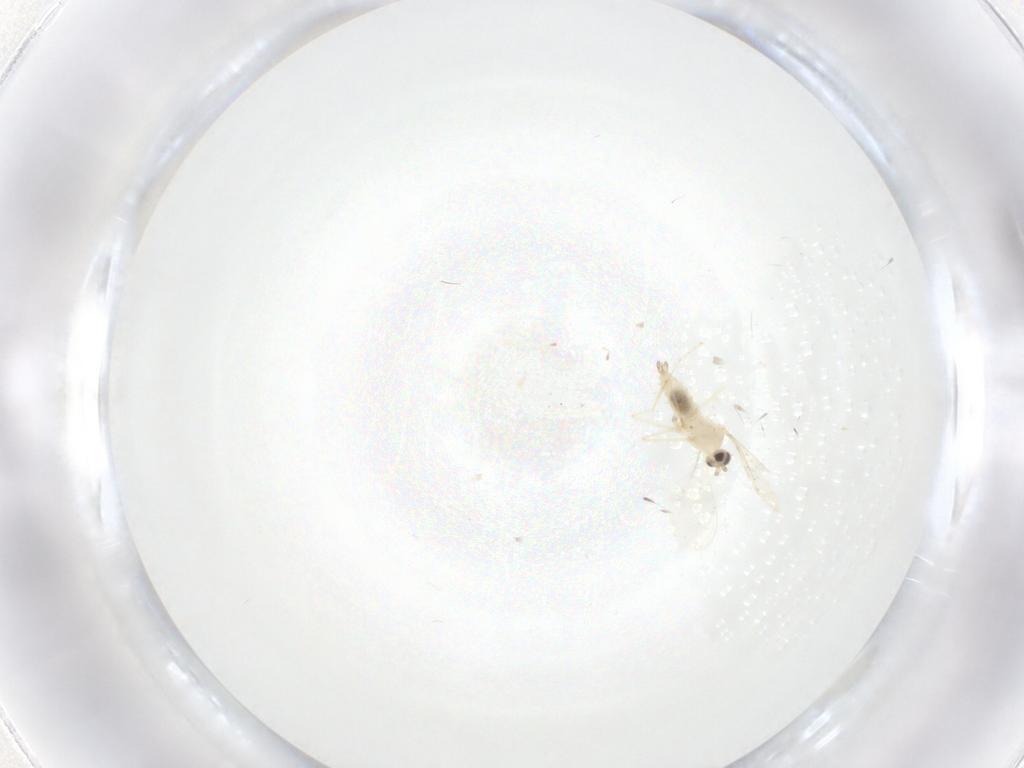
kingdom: Animalia
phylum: Arthropoda
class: Insecta
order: Diptera
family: Cecidomyiidae
